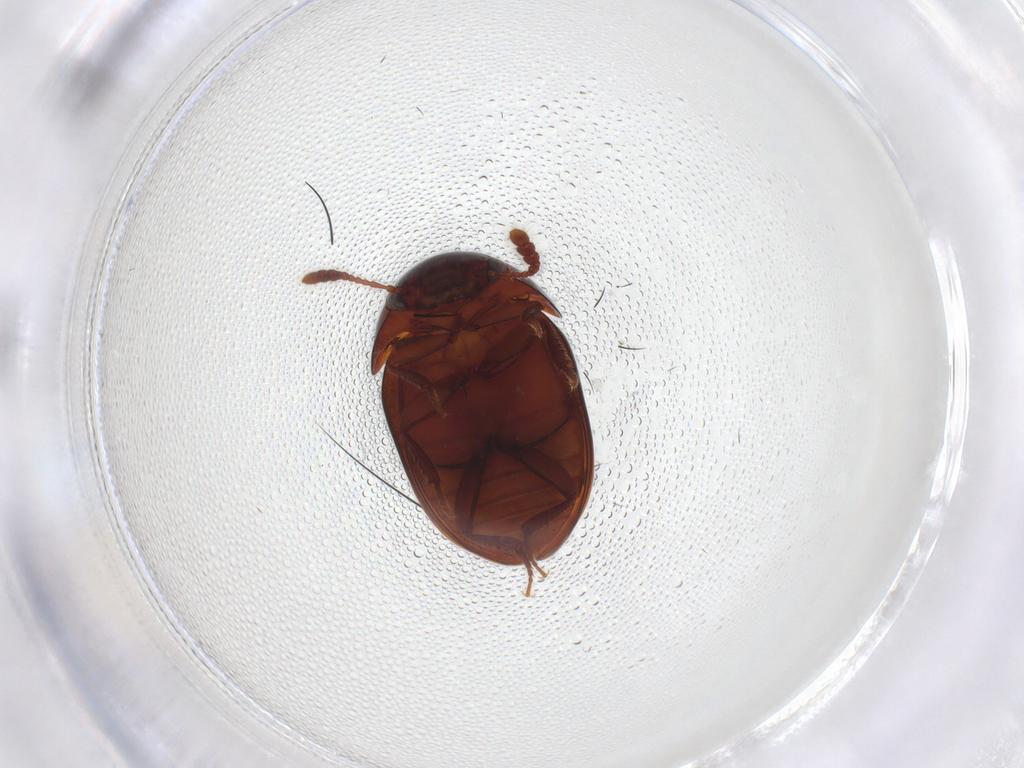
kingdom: Animalia
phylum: Arthropoda
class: Insecta
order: Coleoptera
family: Leiodidae
